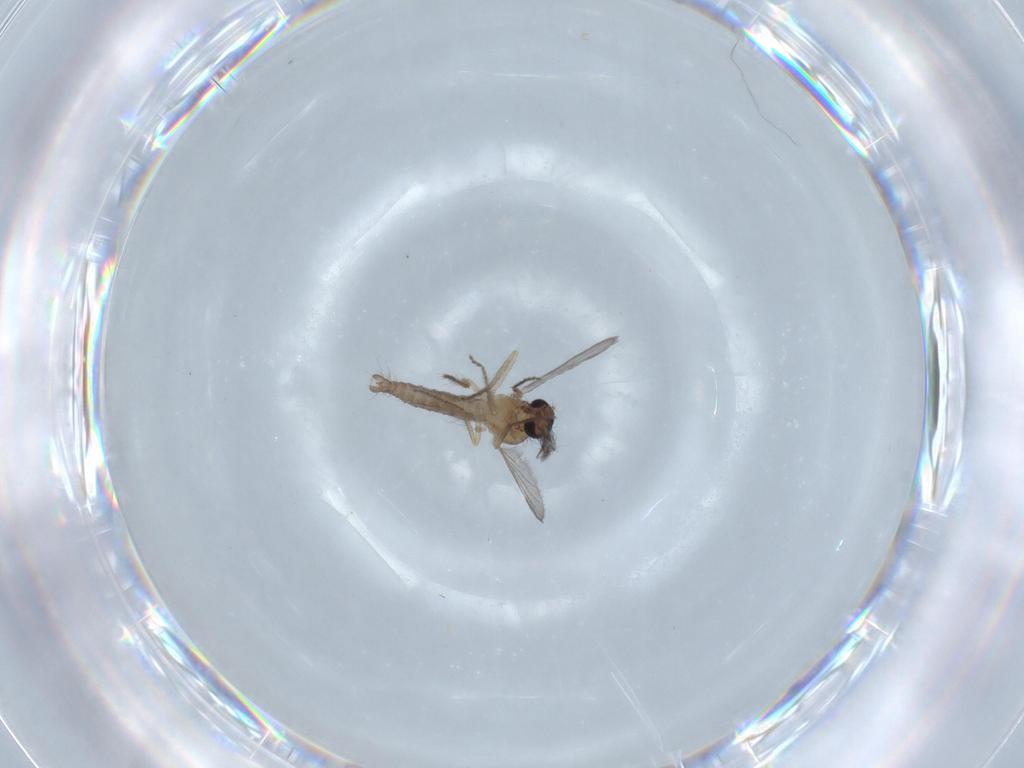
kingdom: Animalia
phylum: Arthropoda
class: Insecta
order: Diptera
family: Ceratopogonidae
